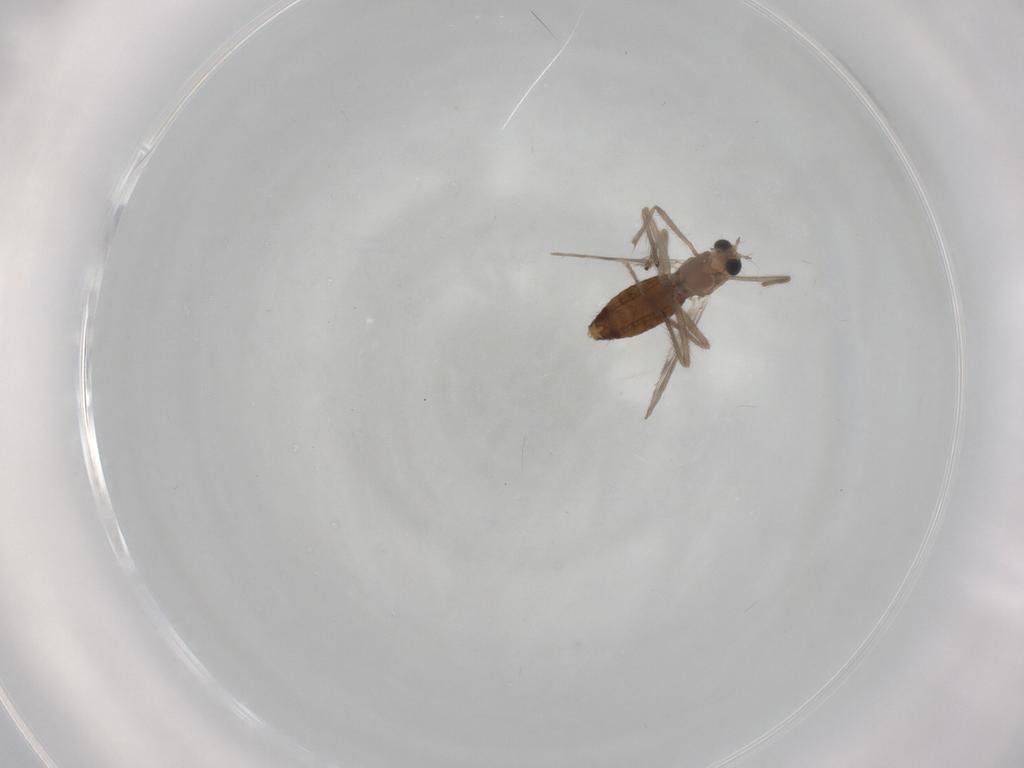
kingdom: Animalia
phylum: Arthropoda
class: Insecta
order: Diptera
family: Chironomidae
